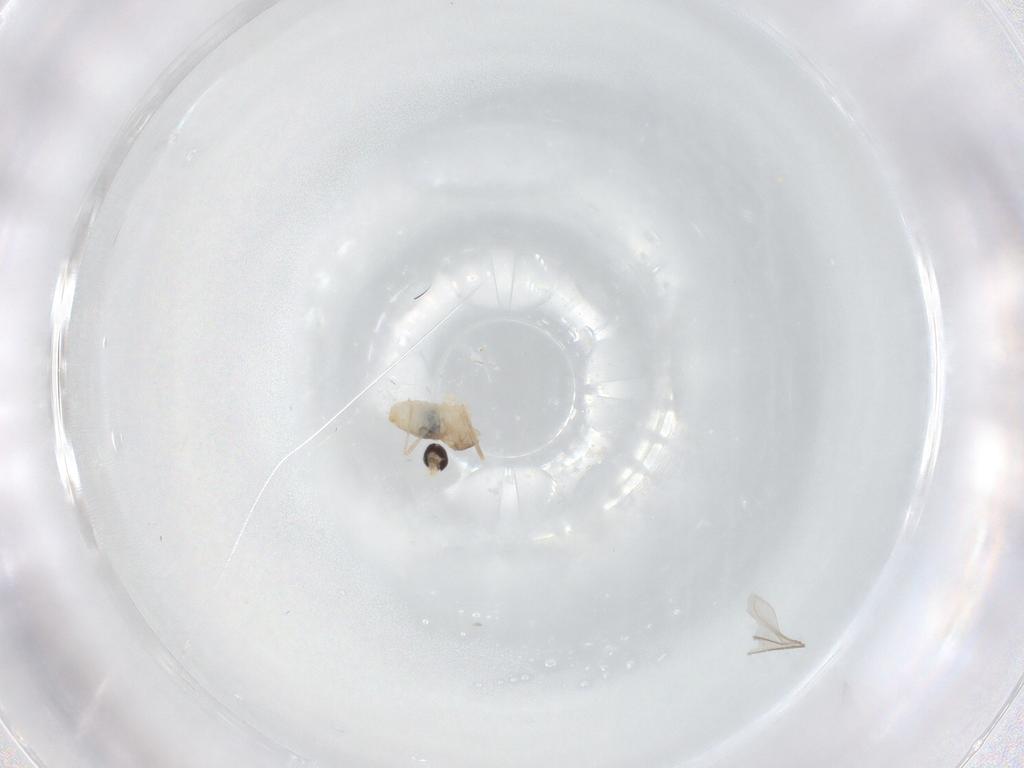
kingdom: Animalia
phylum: Arthropoda
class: Insecta
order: Diptera
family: Cecidomyiidae
